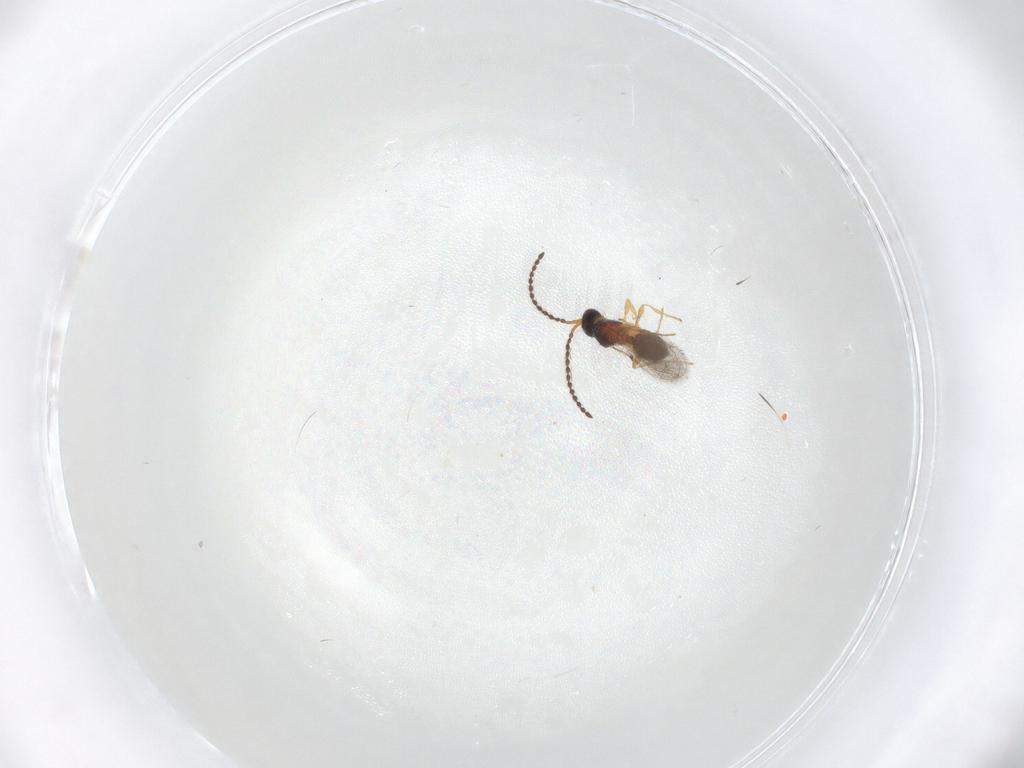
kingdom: Animalia
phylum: Arthropoda
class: Insecta
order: Hymenoptera
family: Diapriidae
